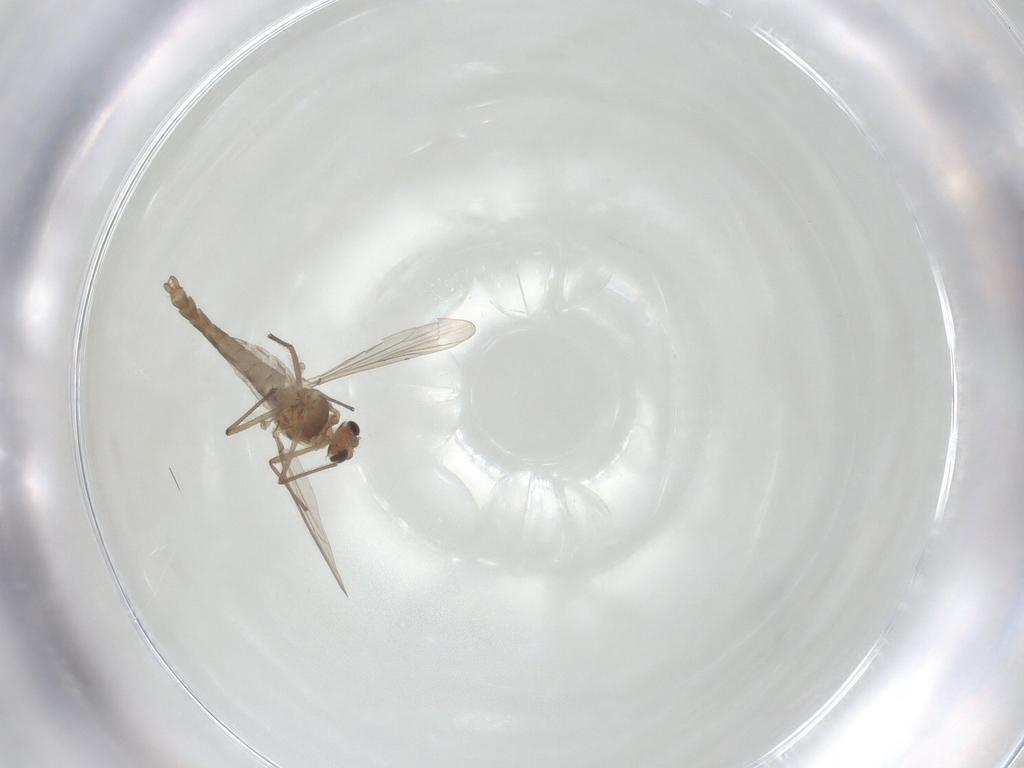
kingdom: Animalia
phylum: Arthropoda
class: Insecta
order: Diptera
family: Chironomidae
